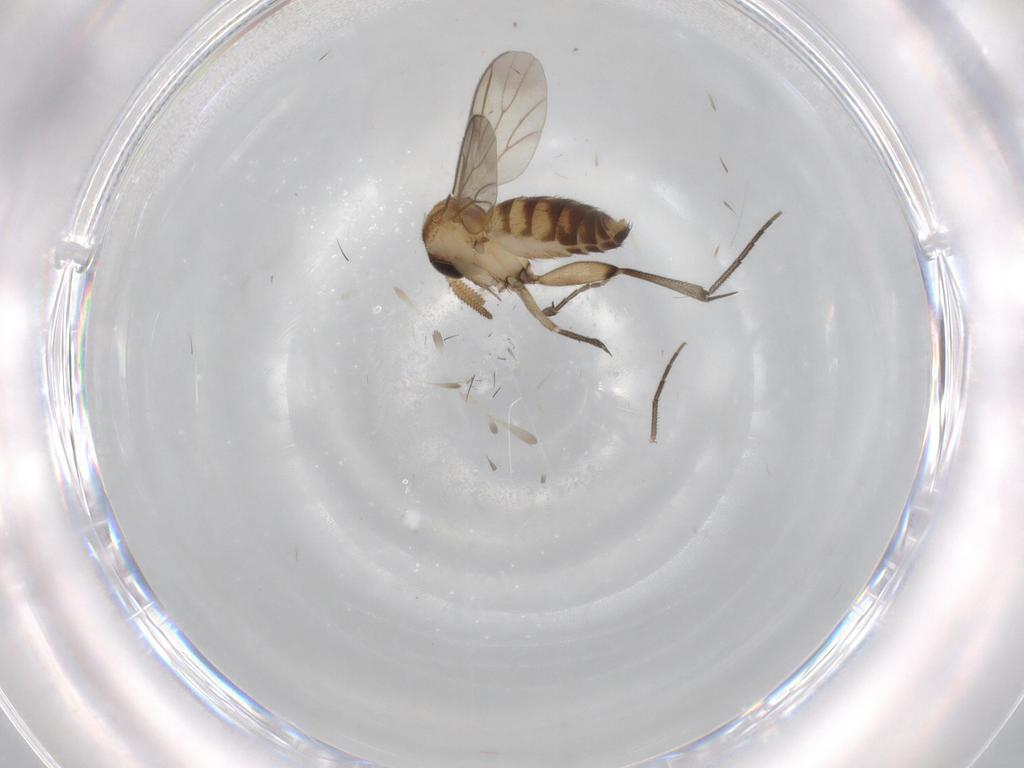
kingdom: Animalia
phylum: Arthropoda
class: Insecta
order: Diptera
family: Mycetophilidae
